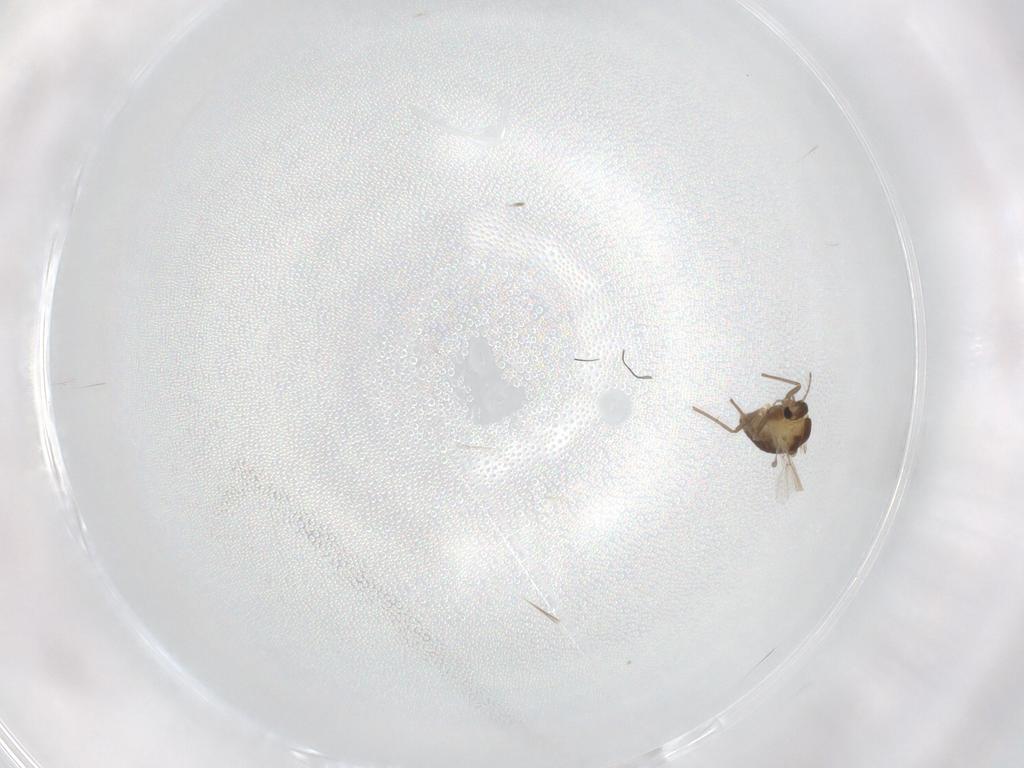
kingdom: Animalia
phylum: Arthropoda
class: Insecta
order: Diptera
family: Chironomidae
